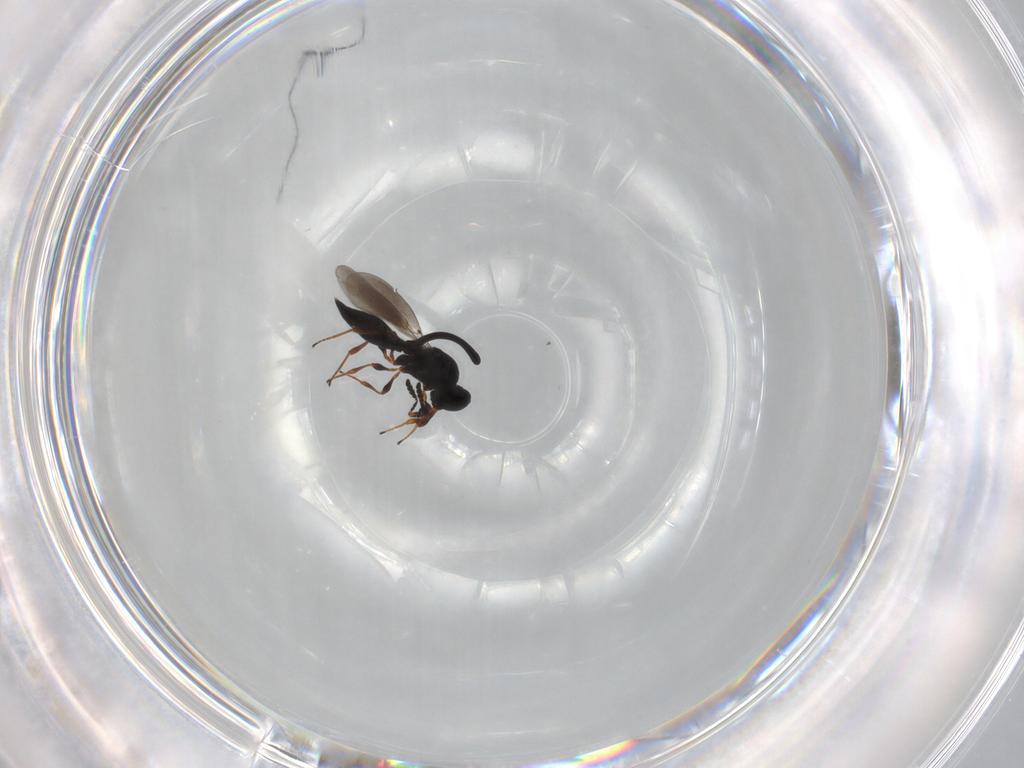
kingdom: Animalia
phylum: Arthropoda
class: Insecta
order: Hymenoptera
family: Platygastridae
